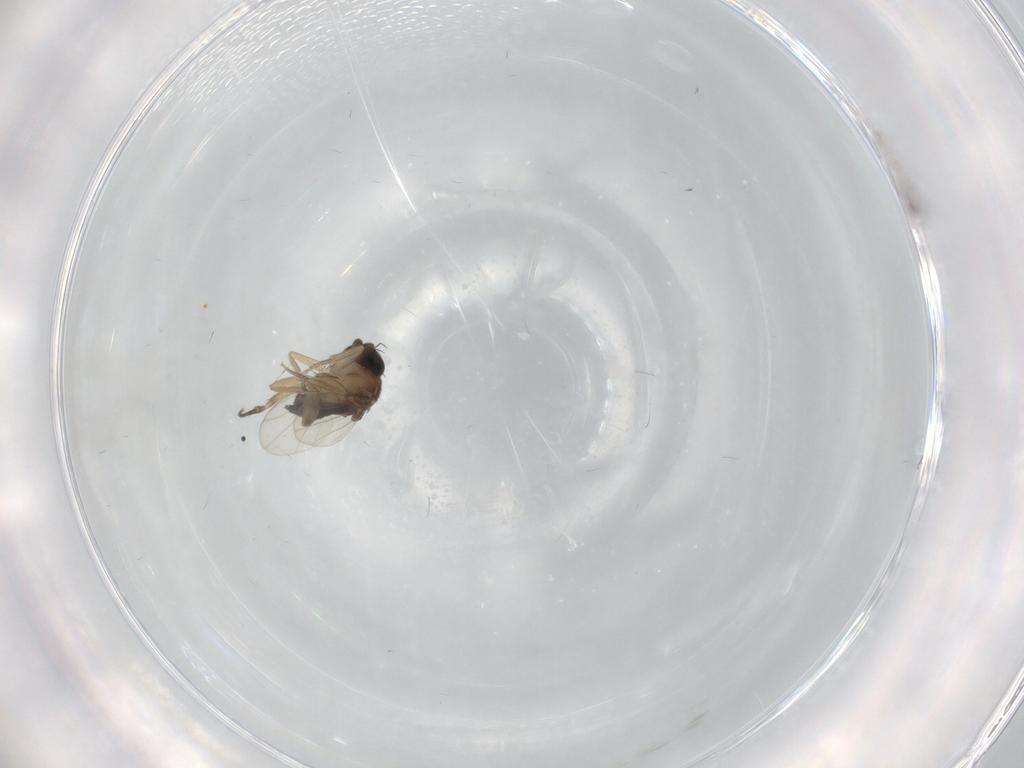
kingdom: Animalia
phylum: Arthropoda
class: Insecta
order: Diptera
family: Phoridae
